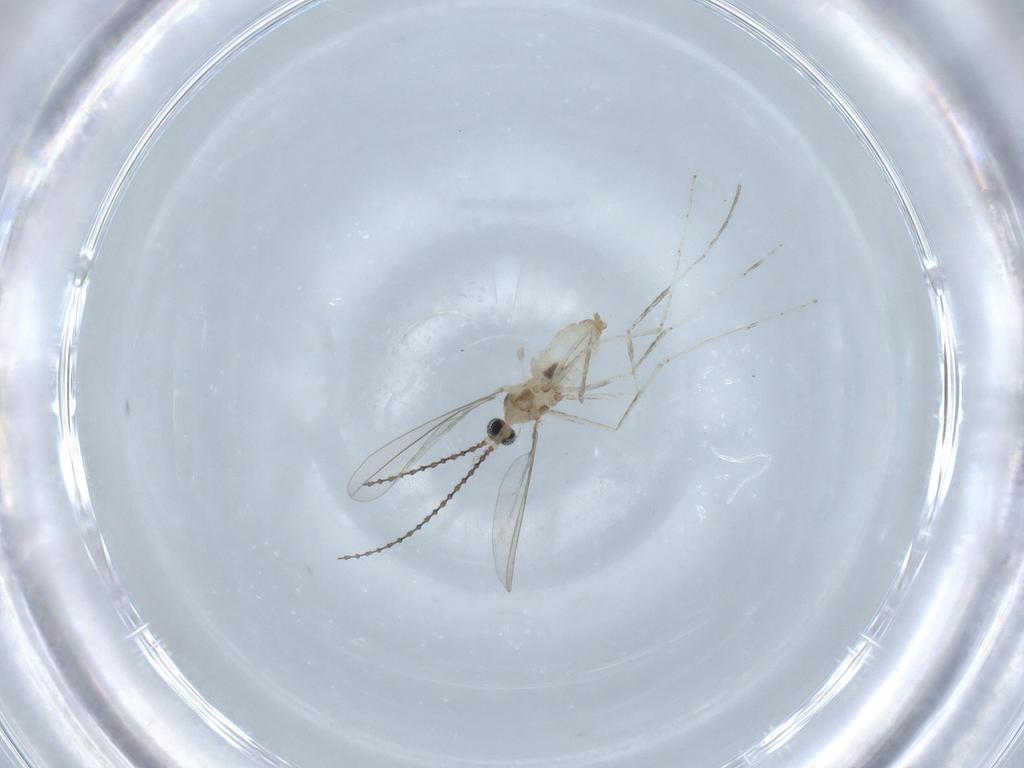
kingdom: Animalia
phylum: Arthropoda
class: Insecta
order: Diptera
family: Cecidomyiidae
